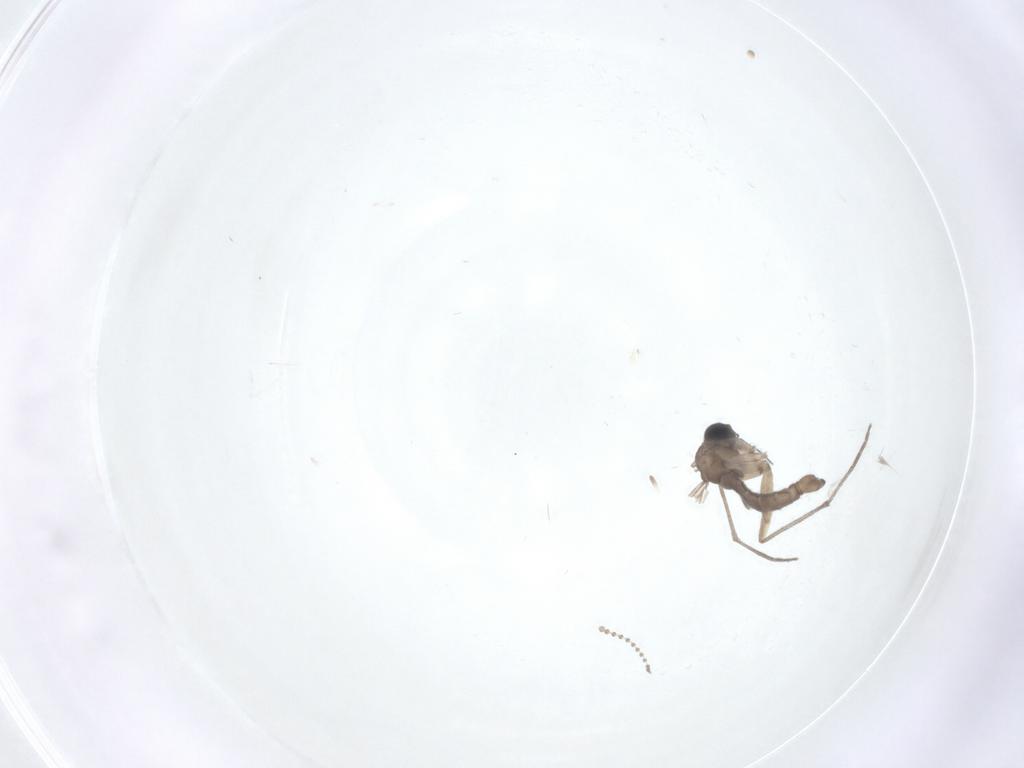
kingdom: Animalia
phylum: Arthropoda
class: Insecta
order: Diptera
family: Sciaridae
